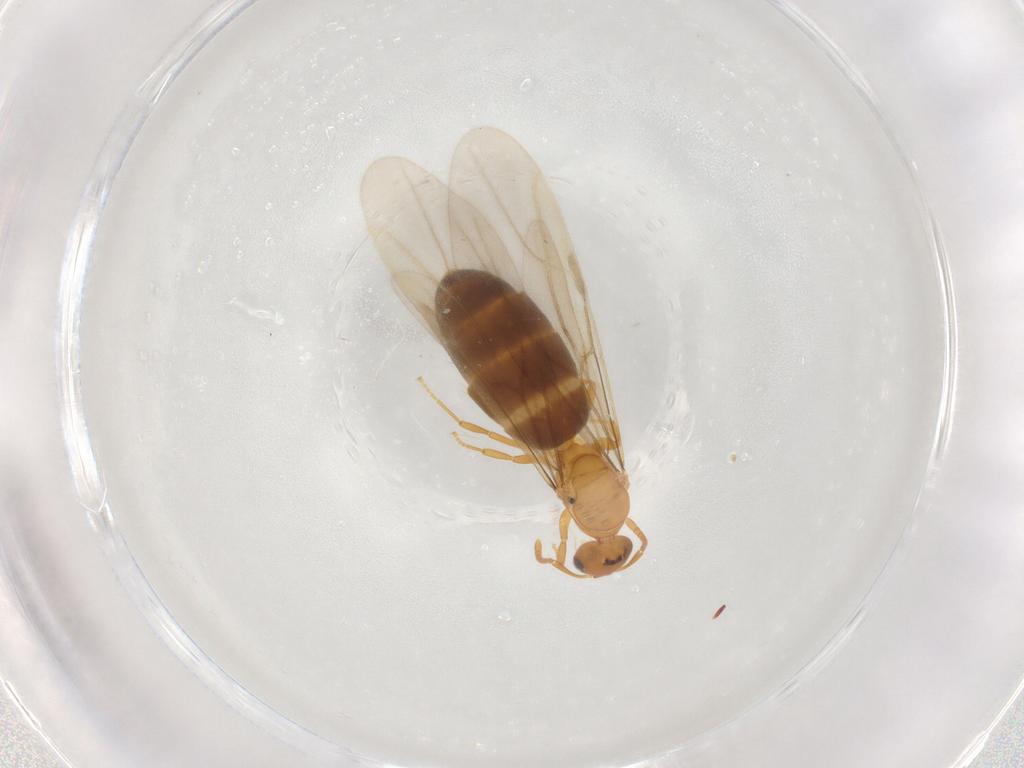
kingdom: Animalia
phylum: Arthropoda
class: Insecta
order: Hymenoptera
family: Formicidae
